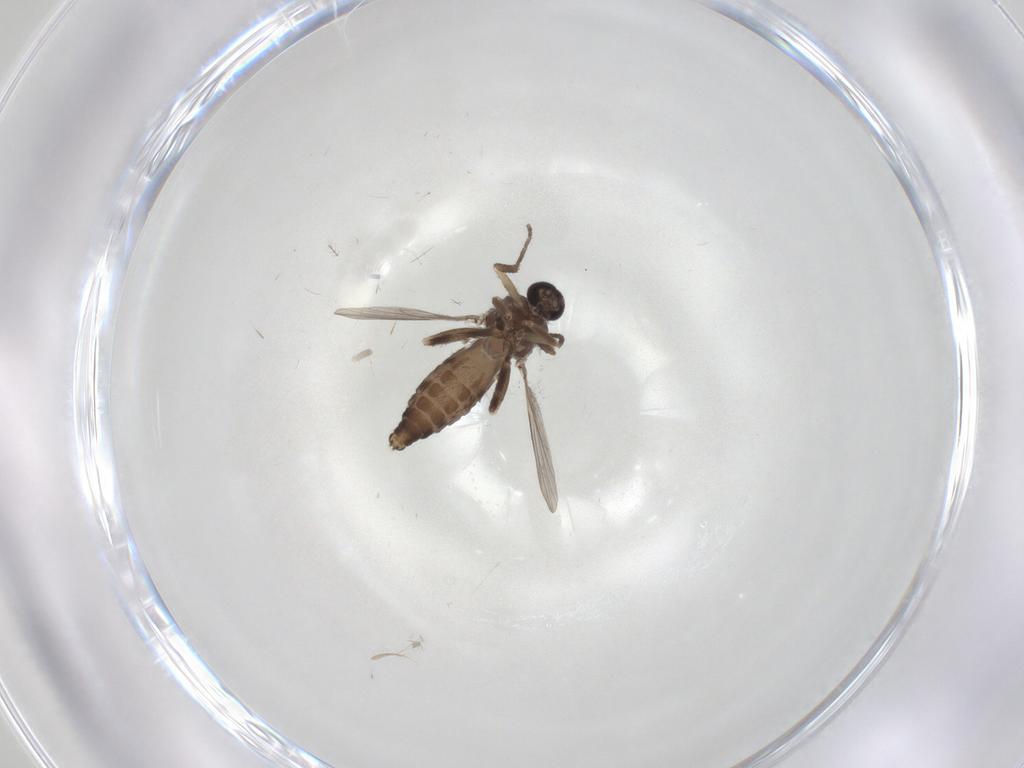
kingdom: Animalia
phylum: Arthropoda
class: Insecta
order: Diptera
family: Ceratopogonidae
